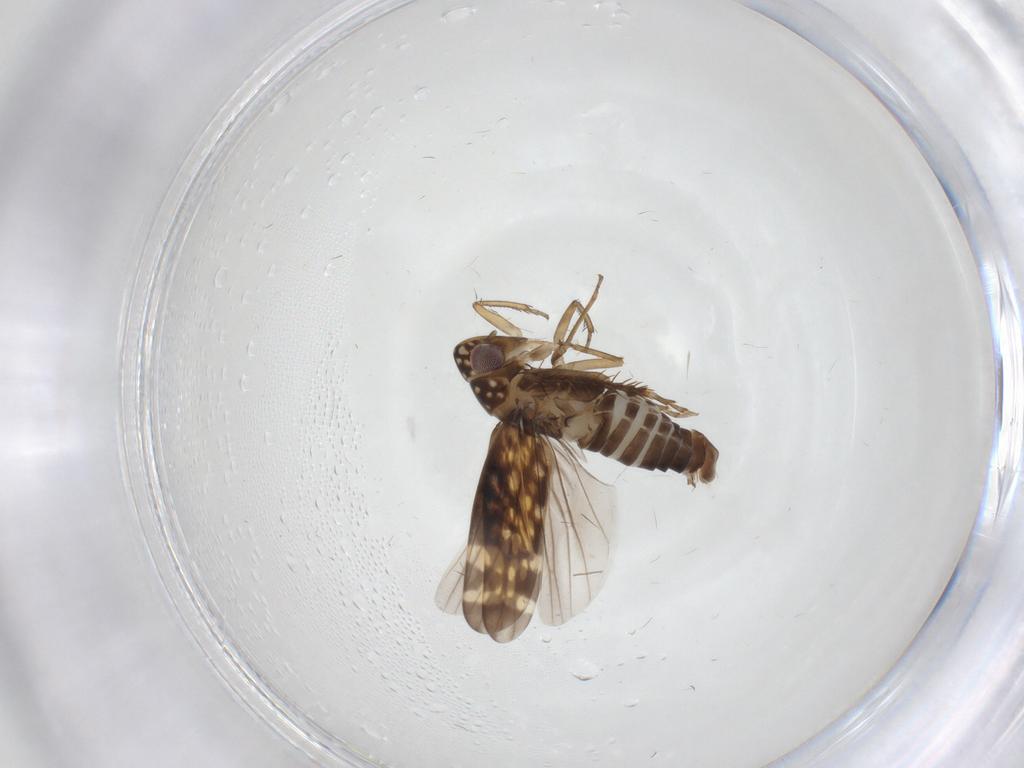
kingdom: Animalia
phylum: Arthropoda
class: Insecta
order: Hemiptera
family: Cicadellidae
